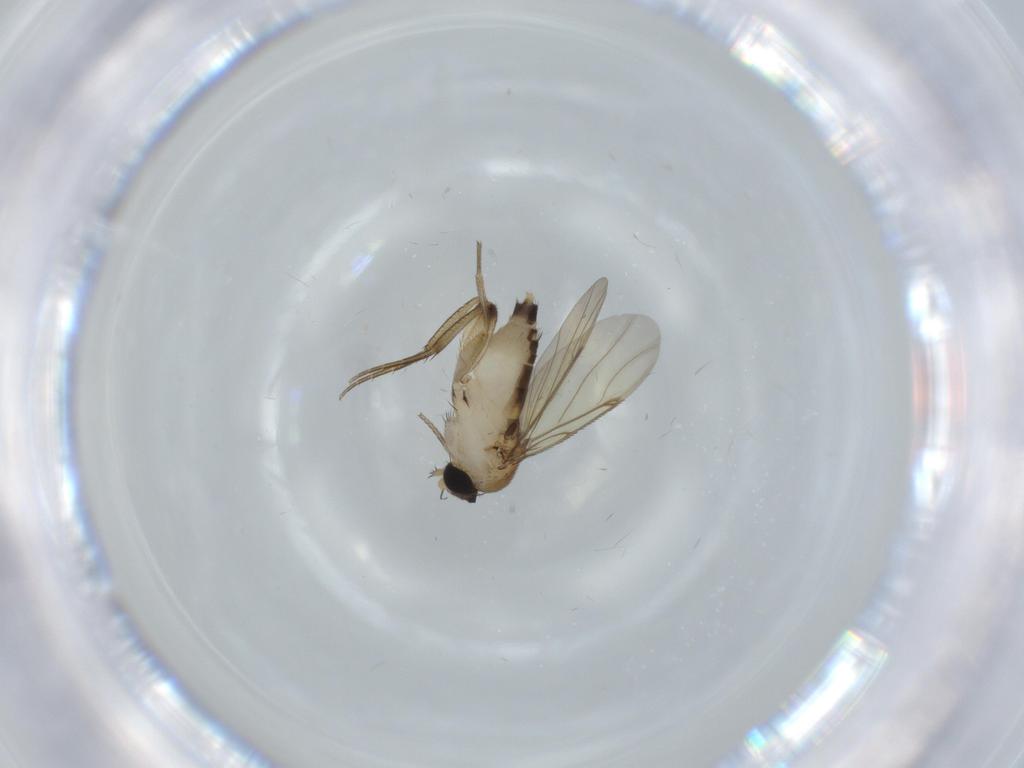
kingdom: Animalia
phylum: Arthropoda
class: Insecta
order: Diptera
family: Phoridae
